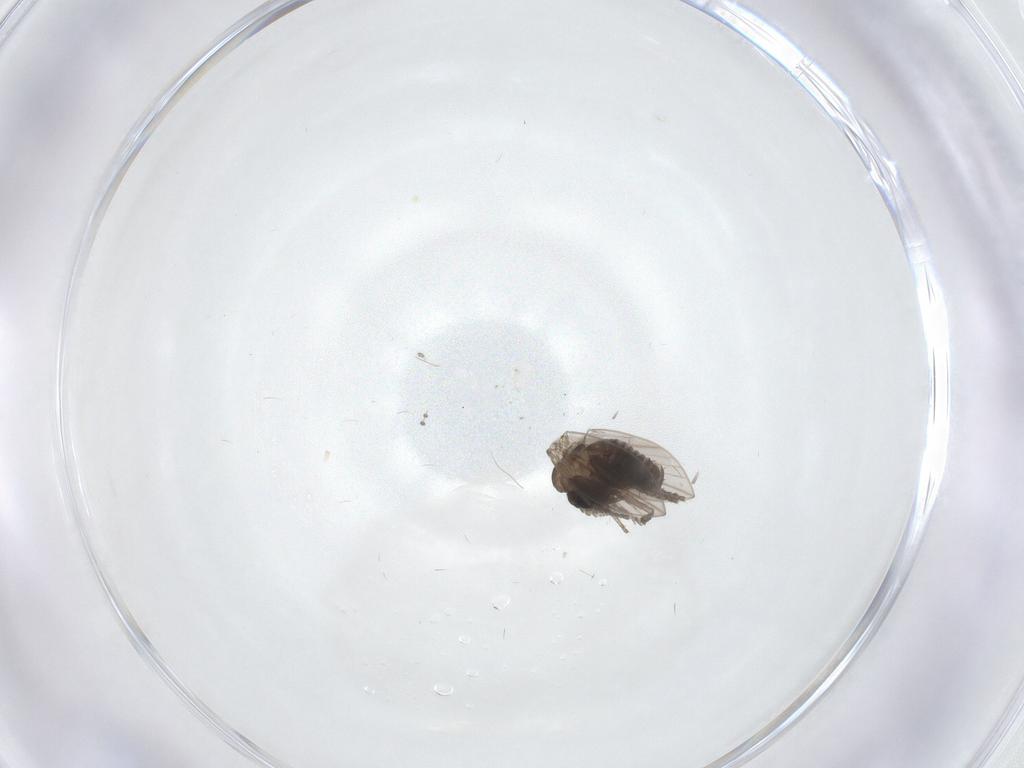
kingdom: Animalia
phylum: Arthropoda
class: Insecta
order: Diptera
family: Psychodidae
